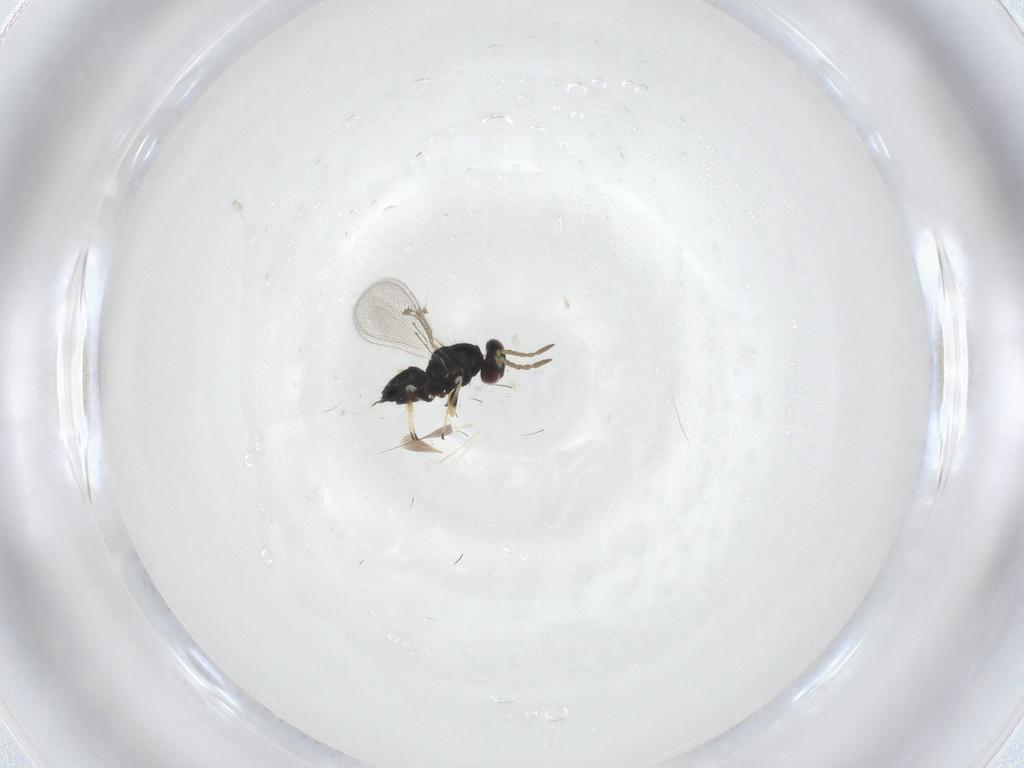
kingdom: Animalia
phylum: Arthropoda
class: Insecta
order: Hymenoptera
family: Eulophidae
